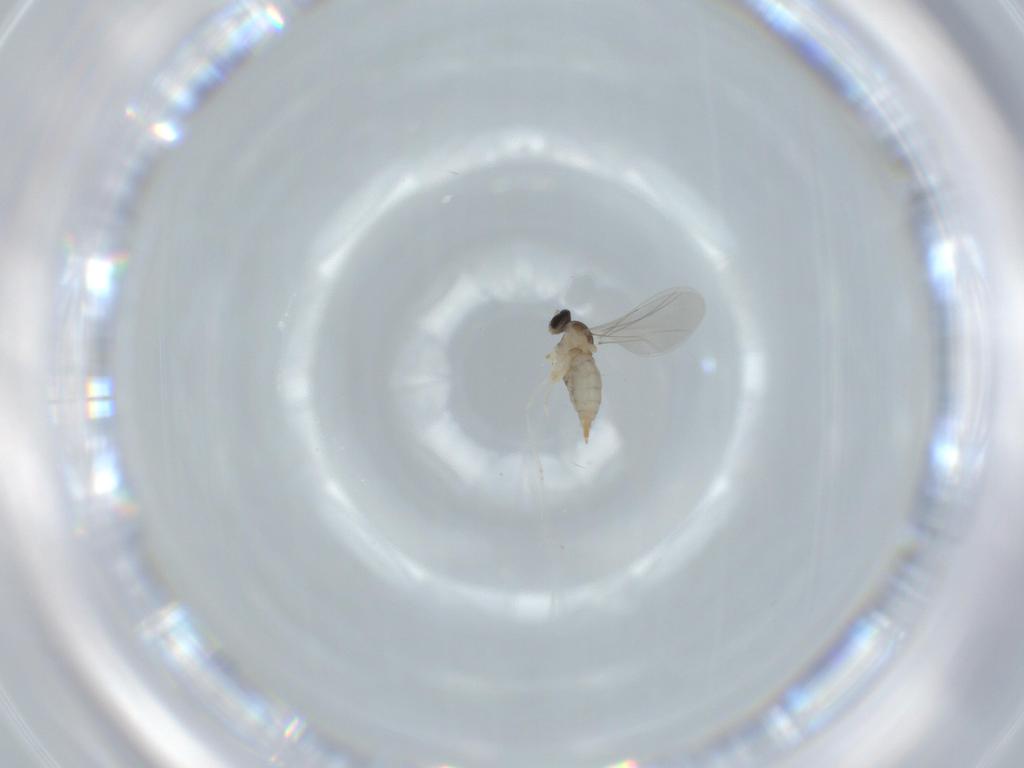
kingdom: Animalia
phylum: Arthropoda
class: Insecta
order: Diptera
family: Cecidomyiidae
